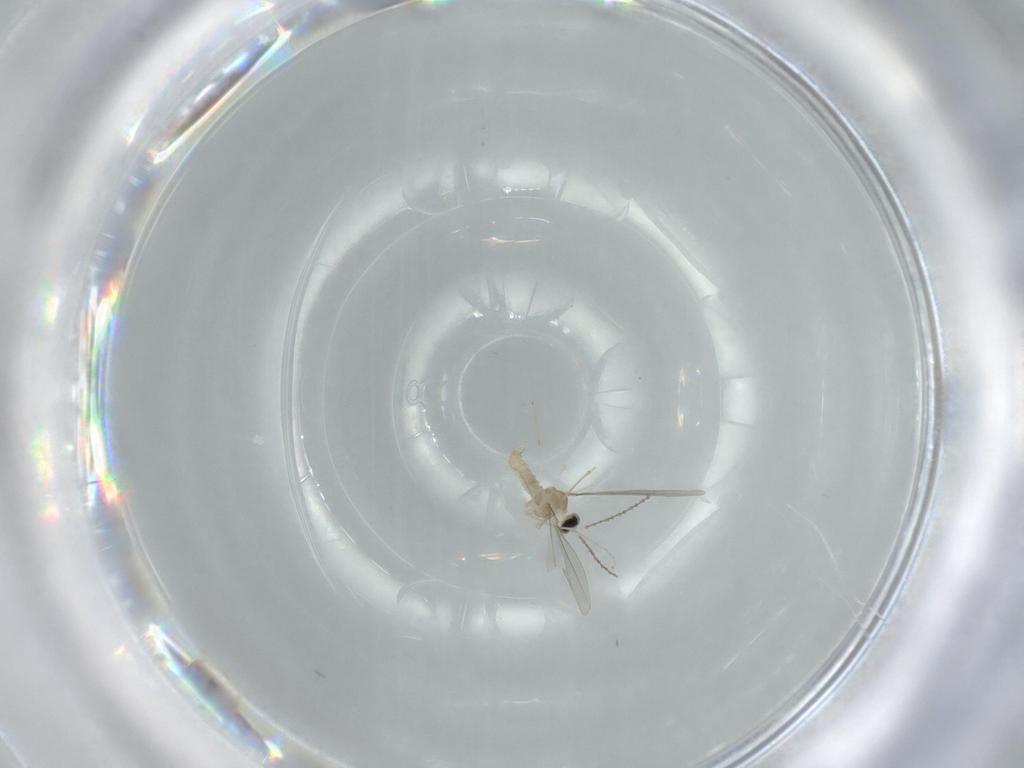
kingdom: Animalia
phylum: Arthropoda
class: Insecta
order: Diptera
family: Cecidomyiidae
